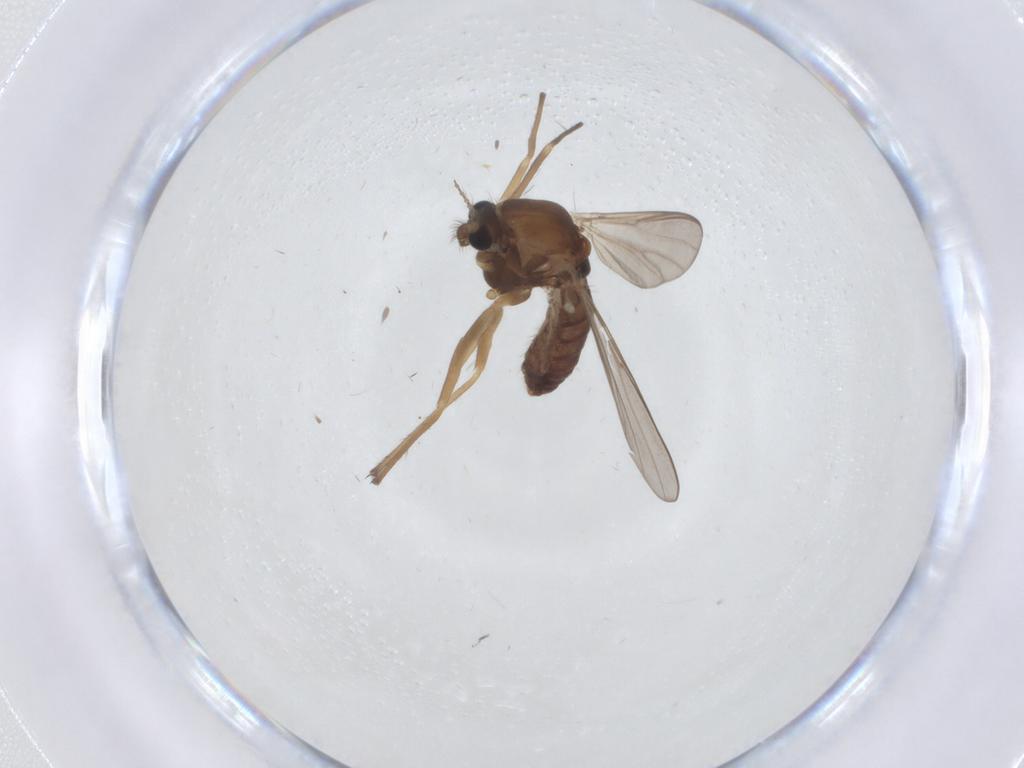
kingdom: Animalia
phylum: Arthropoda
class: Insecta
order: Diptera
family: Chironomidae
